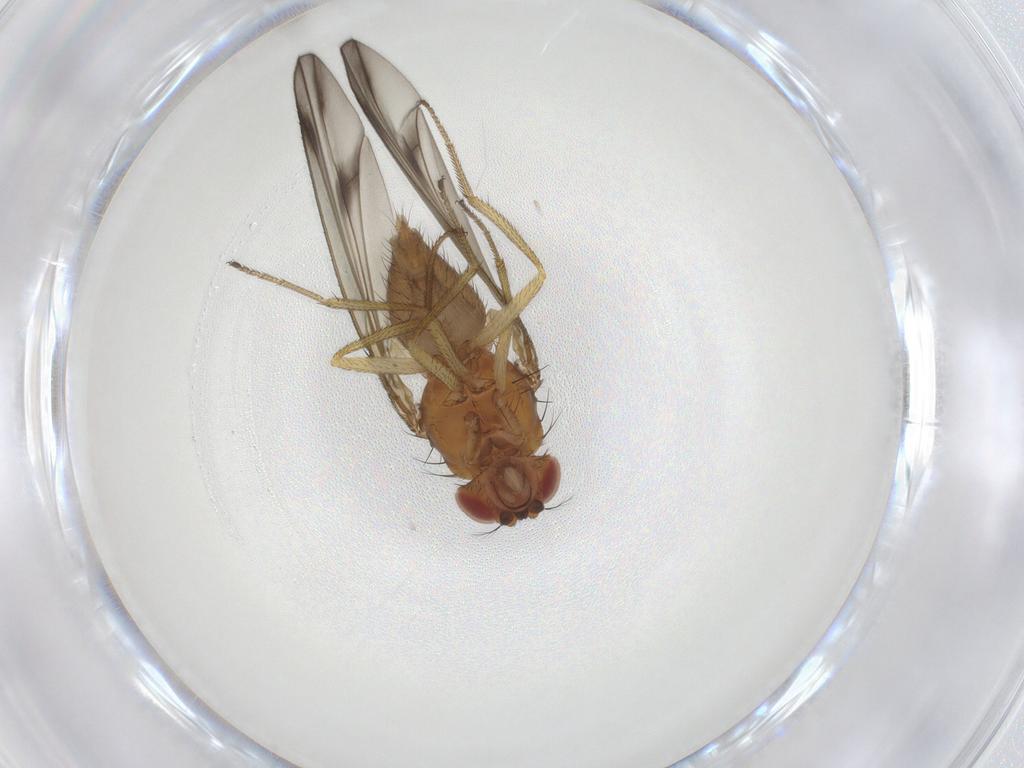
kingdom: Animalia
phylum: Arthropoda
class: Insecta
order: Diptera
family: Drosophilidae
